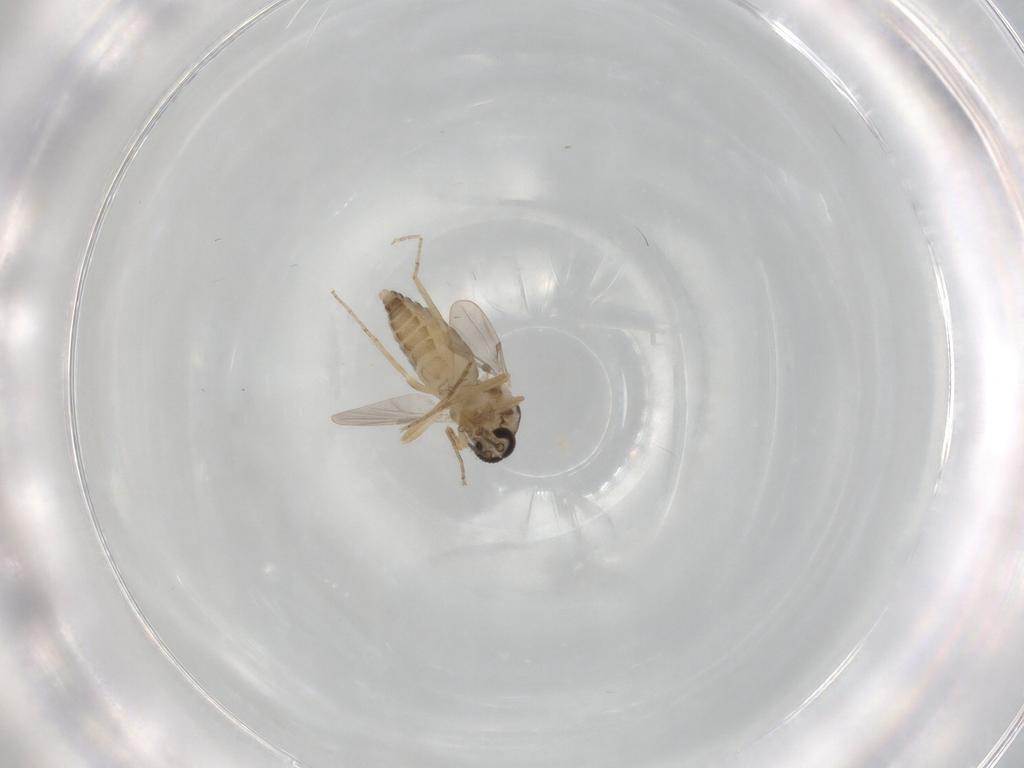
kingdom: Animalia
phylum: Arthropoda
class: Insecta
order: Diptera
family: Ceratopogonidae
